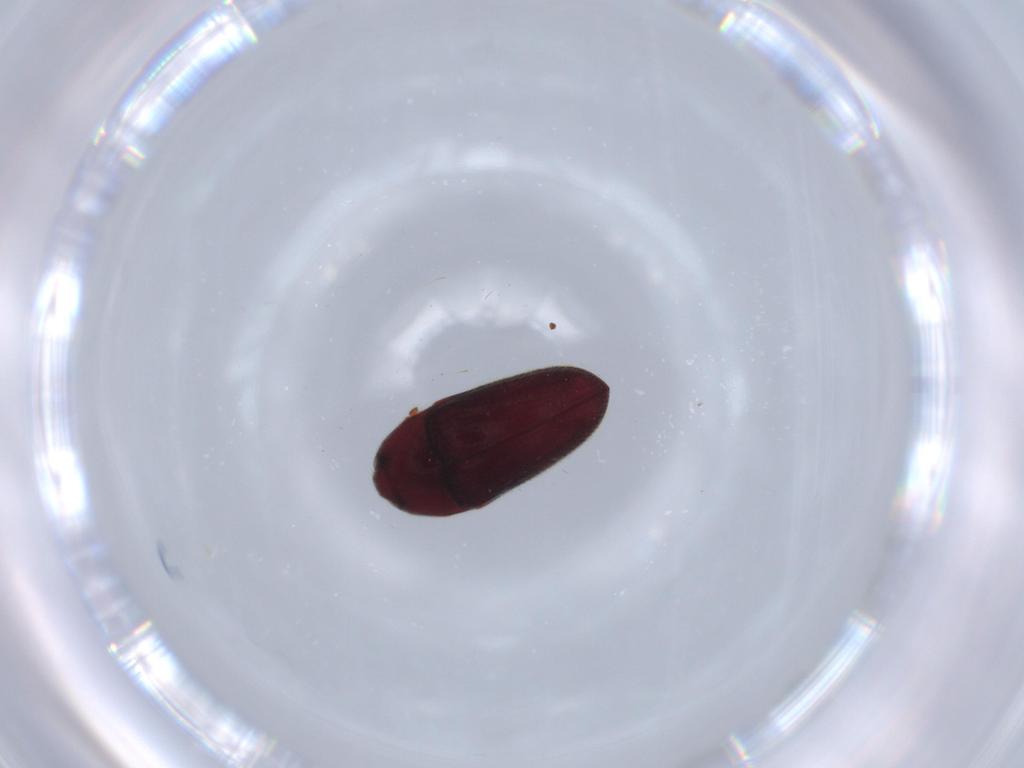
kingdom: Animalia
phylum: Arthropoda
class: Insecta
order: Coleoptera
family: Throscidae
